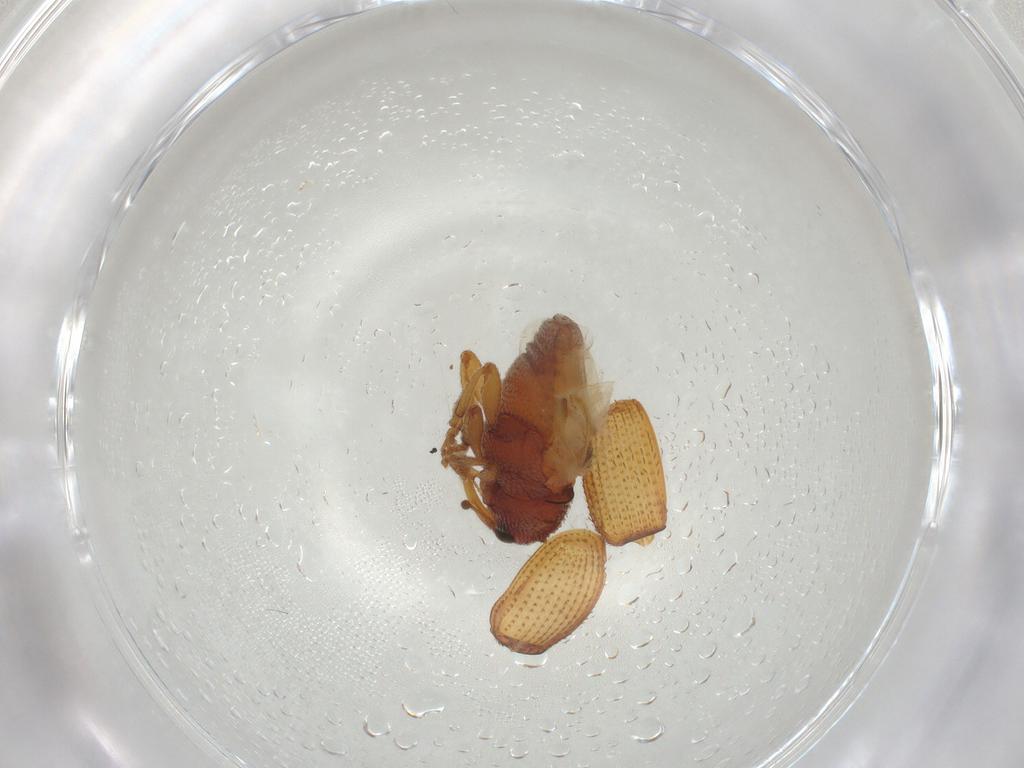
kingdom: Animalia
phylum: Arthropoda
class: Insecta
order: Coleoptera
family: Curculionidae
